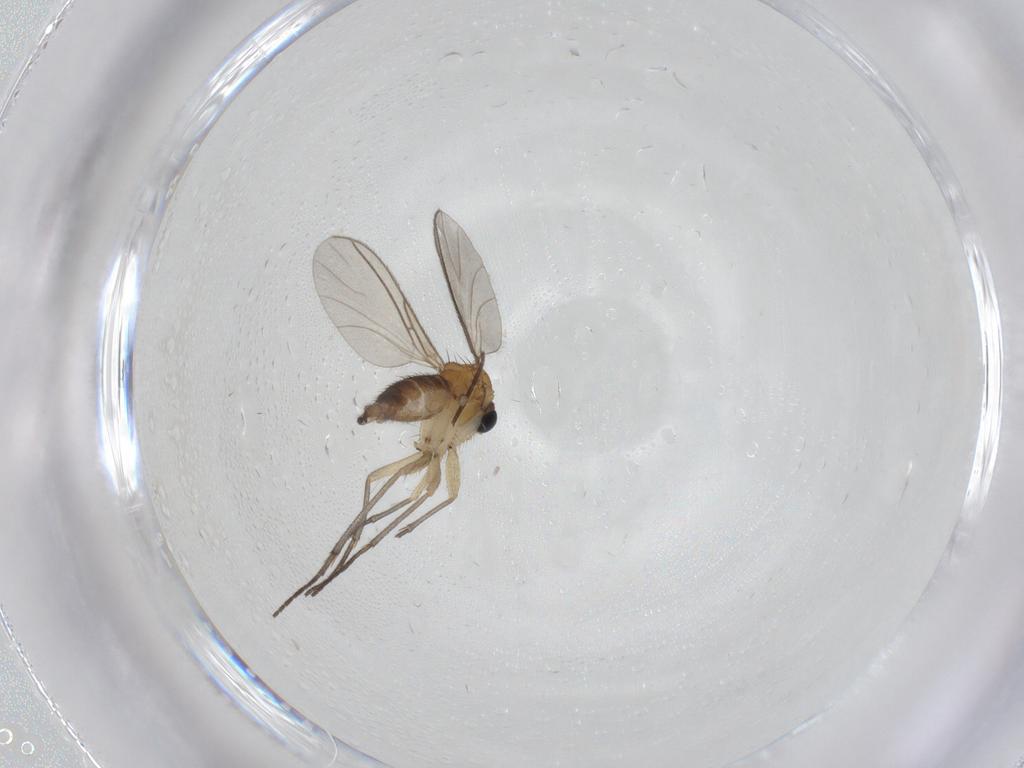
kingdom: Animalia
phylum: Arthropoda
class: Insecta
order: Diptera
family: Sciaridae
